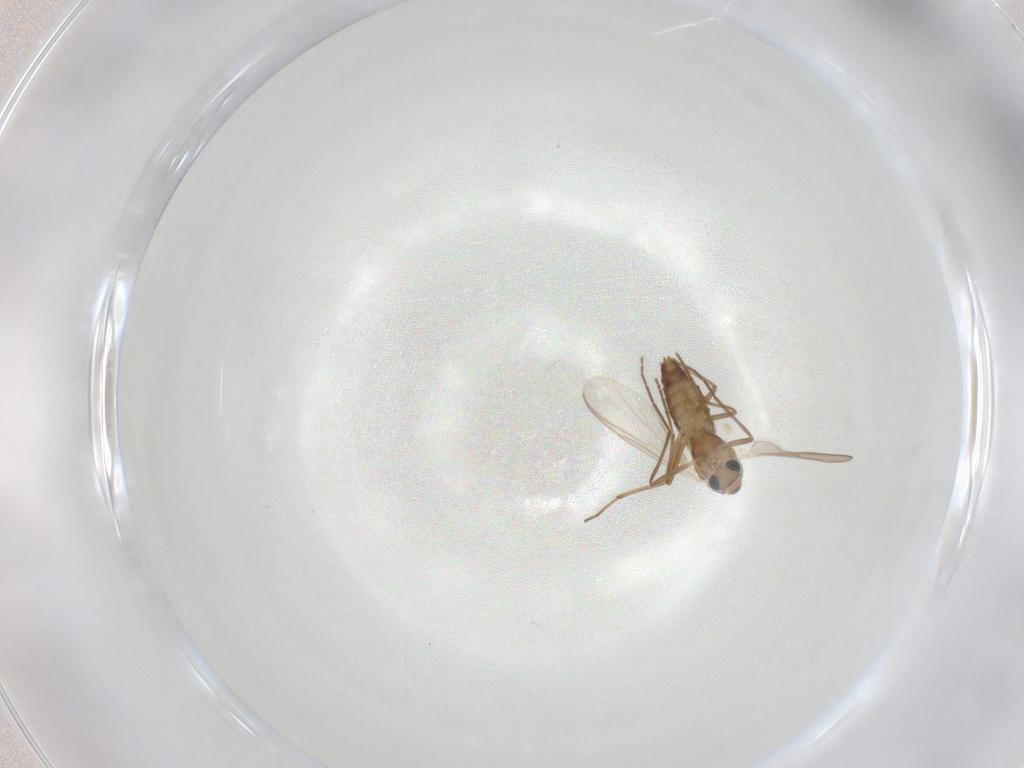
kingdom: Animalia
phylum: Arthropoda
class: Insecta
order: Diptera
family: Chironomidae
